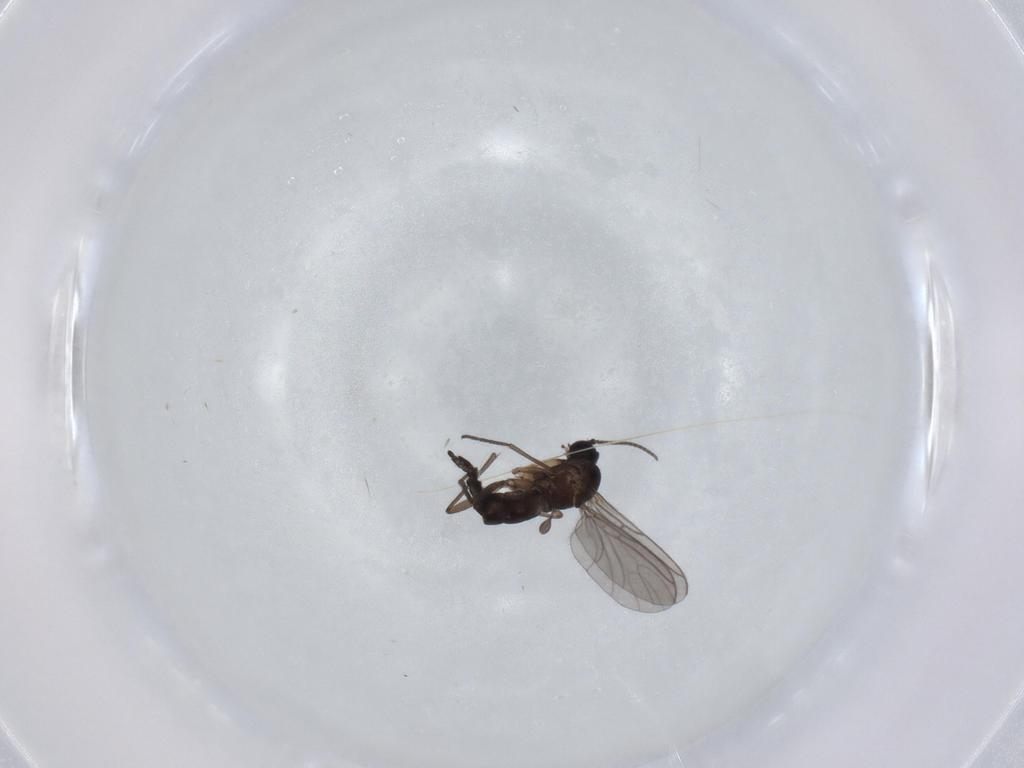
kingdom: Animalia
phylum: Arthropoda
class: Insecta
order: Diptera
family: Sciaridae
